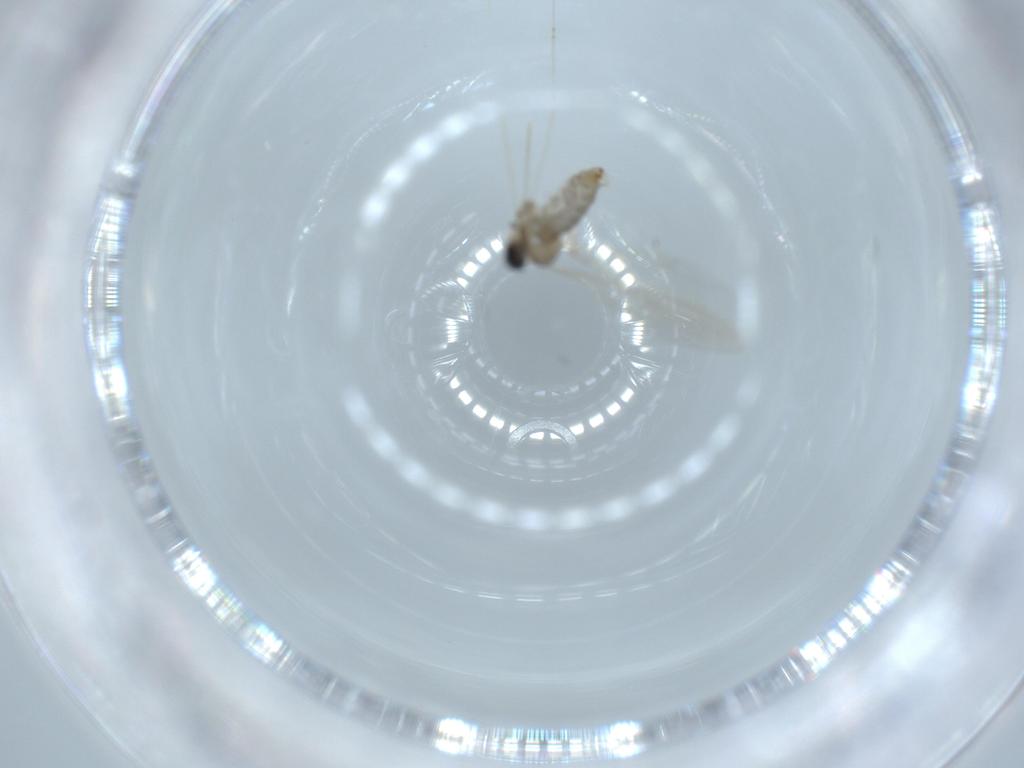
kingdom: Animalia
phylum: Arthropoda
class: Insecta
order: Diptera
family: Cecidomyiidae
